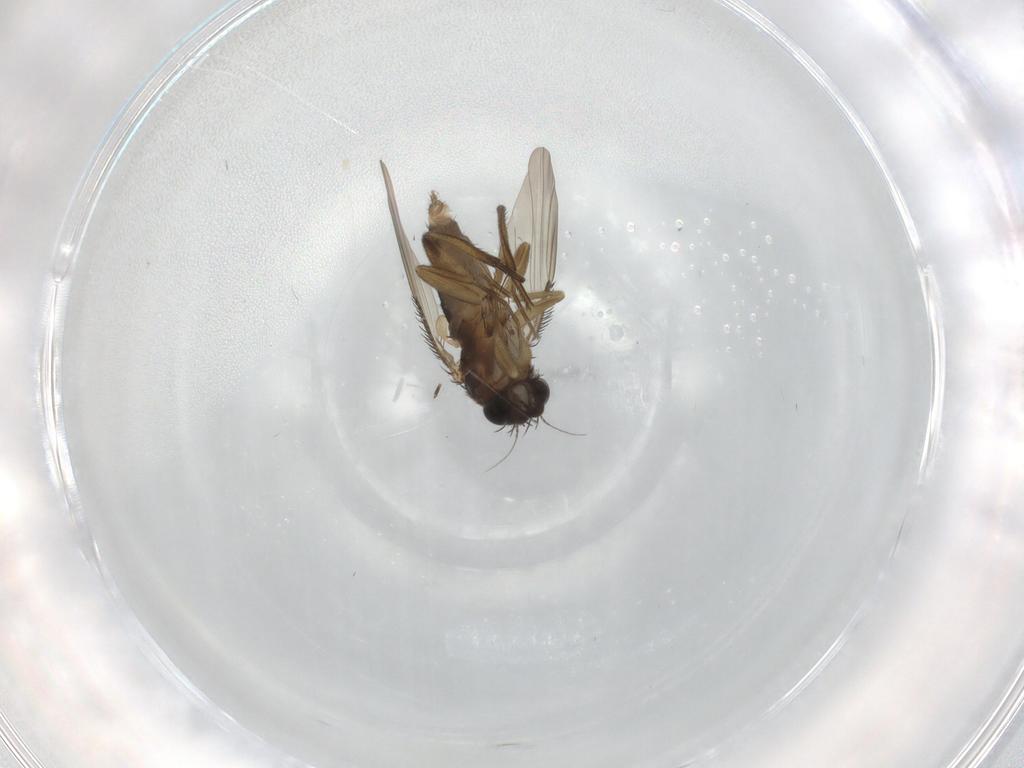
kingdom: Animalia
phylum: Arthropoda
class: Insecta
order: Diptera
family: Phoridae
